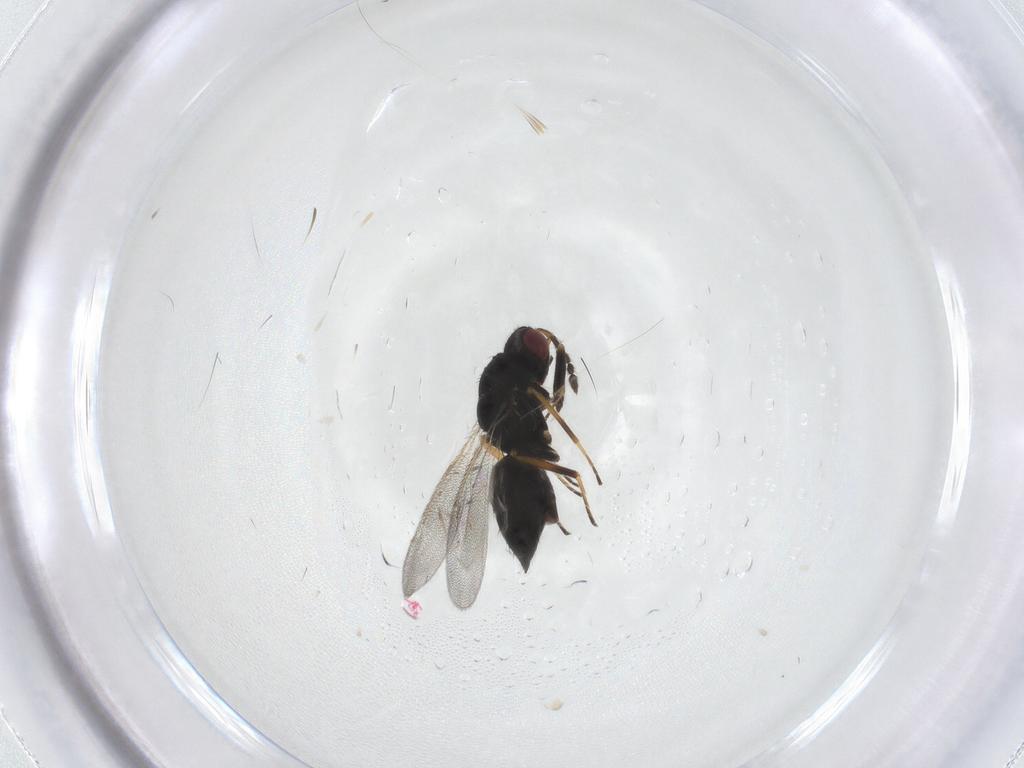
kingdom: Animalia
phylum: Arthropoda
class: Insecta
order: Hymenoptera
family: Eulophidae
